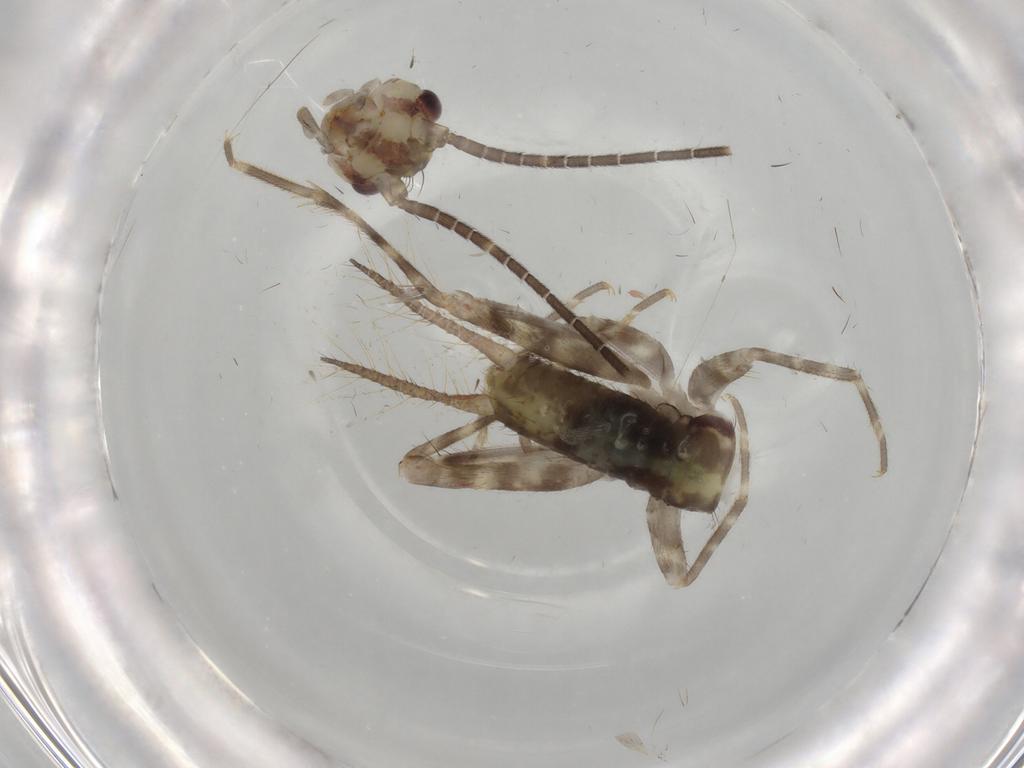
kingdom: Animalia
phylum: Arthropoda
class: Insecta
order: Orthoptera
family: Gryllidae
